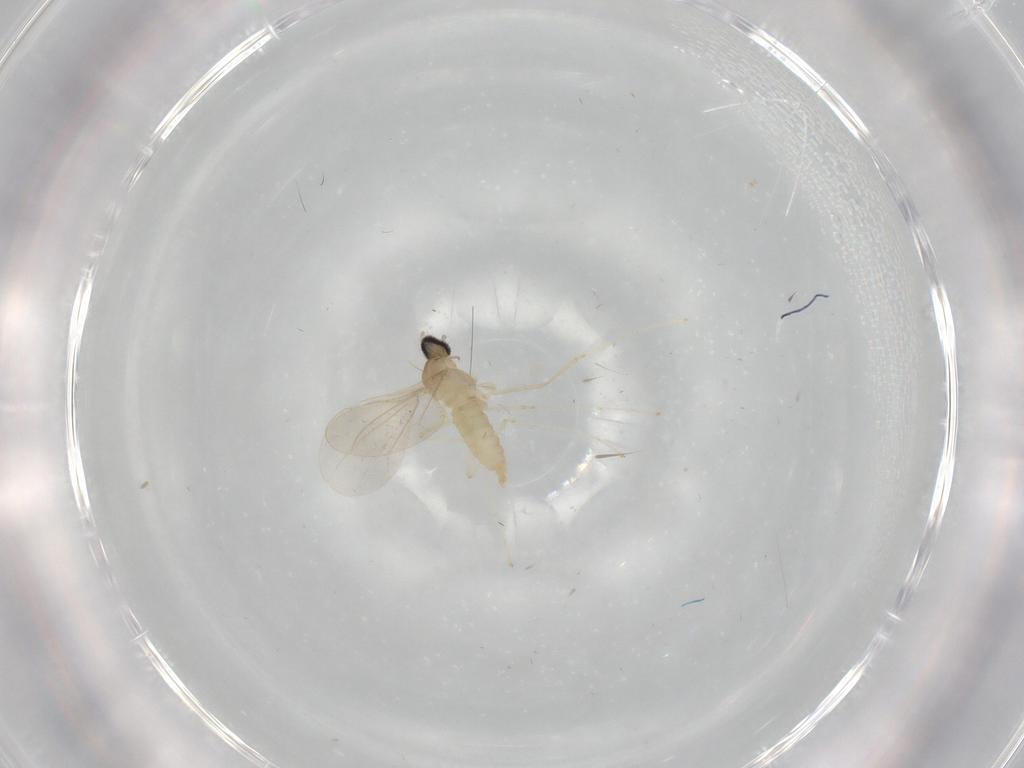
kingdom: Animalia
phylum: Arthropoda
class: Insecta
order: Diptera
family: Cecidomyiidae
